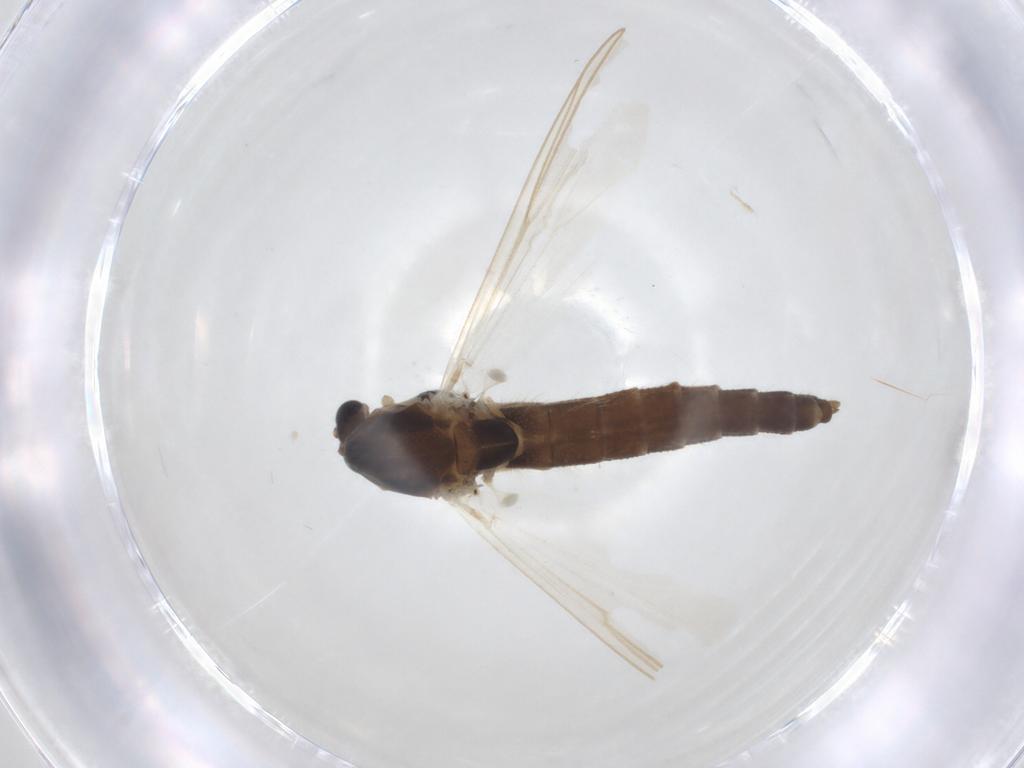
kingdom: Animalia
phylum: Arthropoda
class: Insecta
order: Diptera
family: Chironomidae
